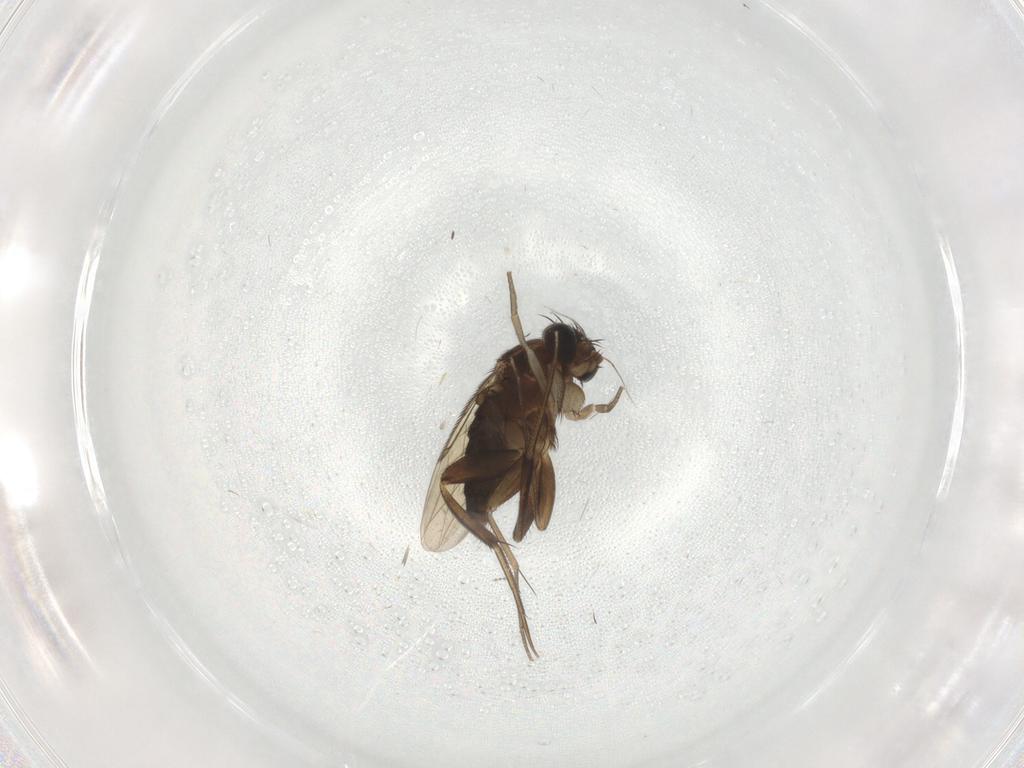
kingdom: Animalia
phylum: Arthropoda
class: Insecta
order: Diptera
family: Phoridae
